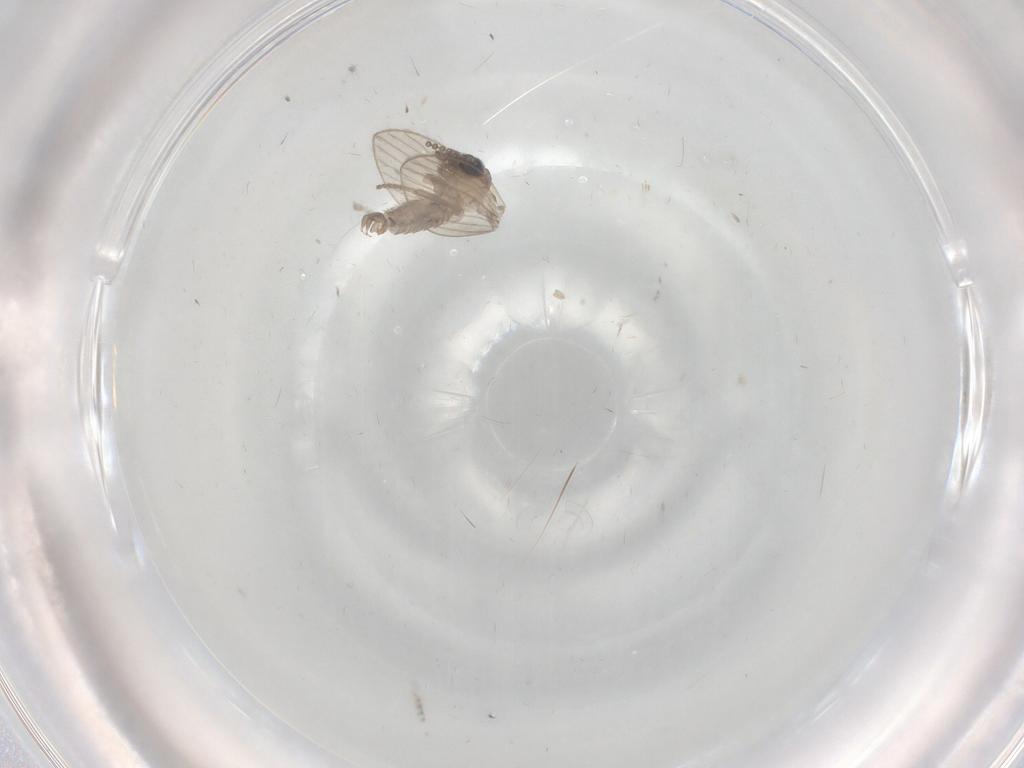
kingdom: Animalia
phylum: Arthropoda
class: Insecta
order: Diptera
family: Psychodidae
